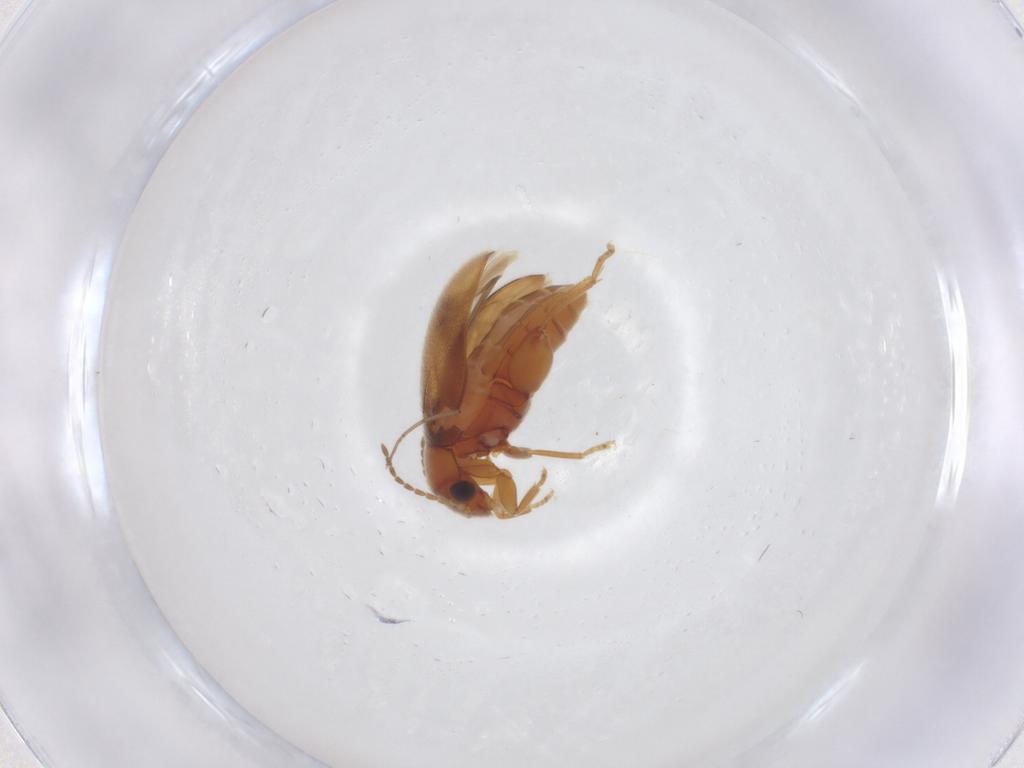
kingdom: Animalia
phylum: Arthropoda
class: Insecta
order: Coleoptera
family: Scirtidae
